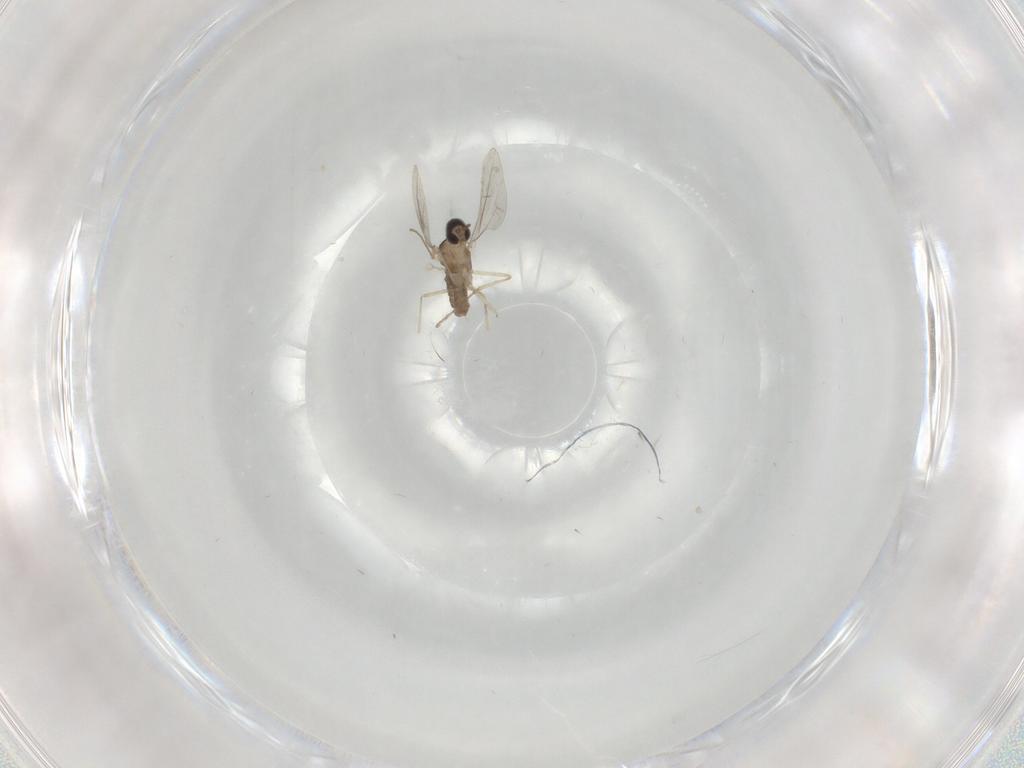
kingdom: Animalia
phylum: Arthropoda
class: Insecta
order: Diptera
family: Cecidomyiidae
